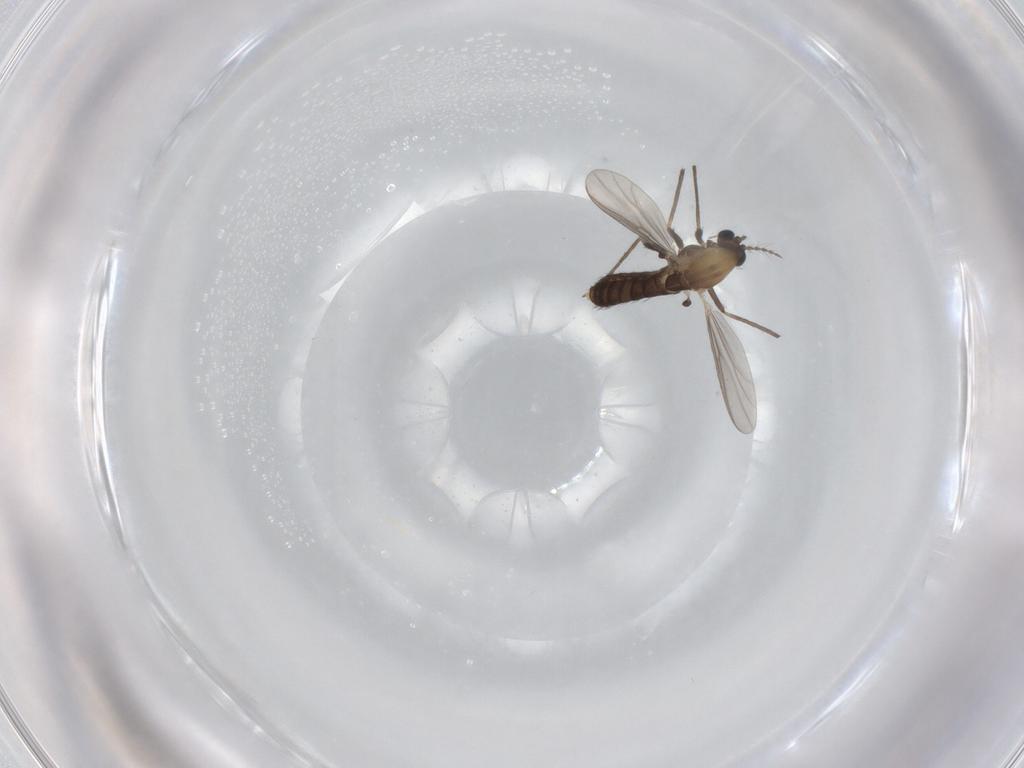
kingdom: Animalia
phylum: Arthropoda
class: Insecta
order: Diptera
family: Chironomidae
